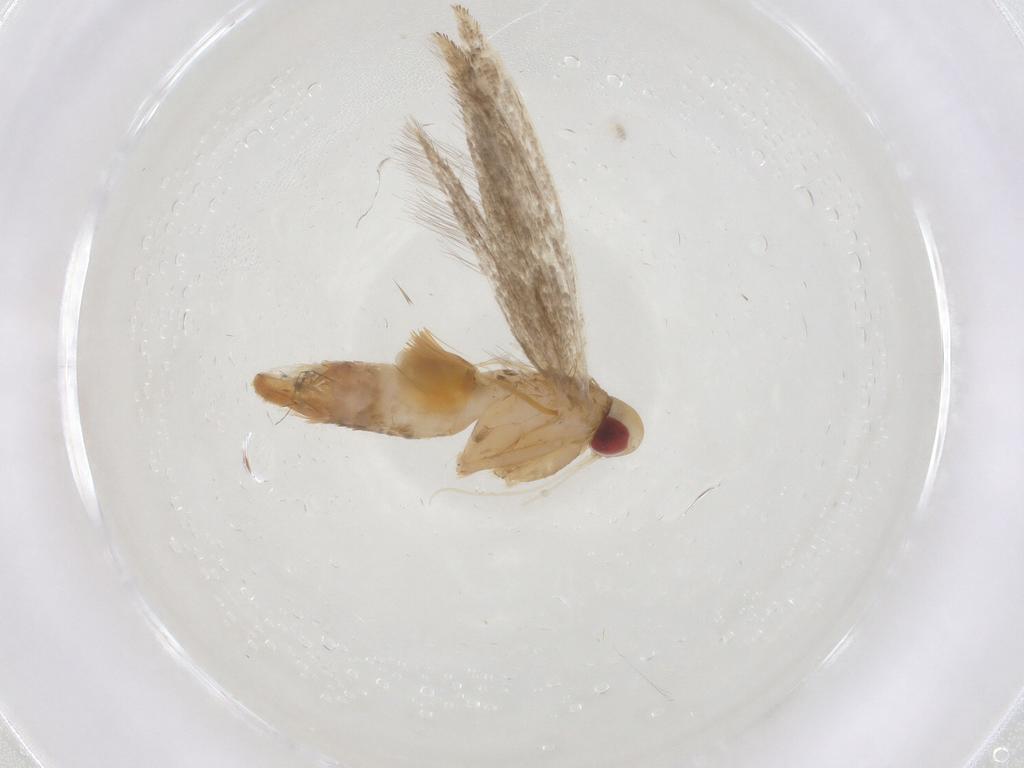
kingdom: Animalia
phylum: Arthropoda
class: Insecta
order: Lepidoptera
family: Cosmopterigidae
